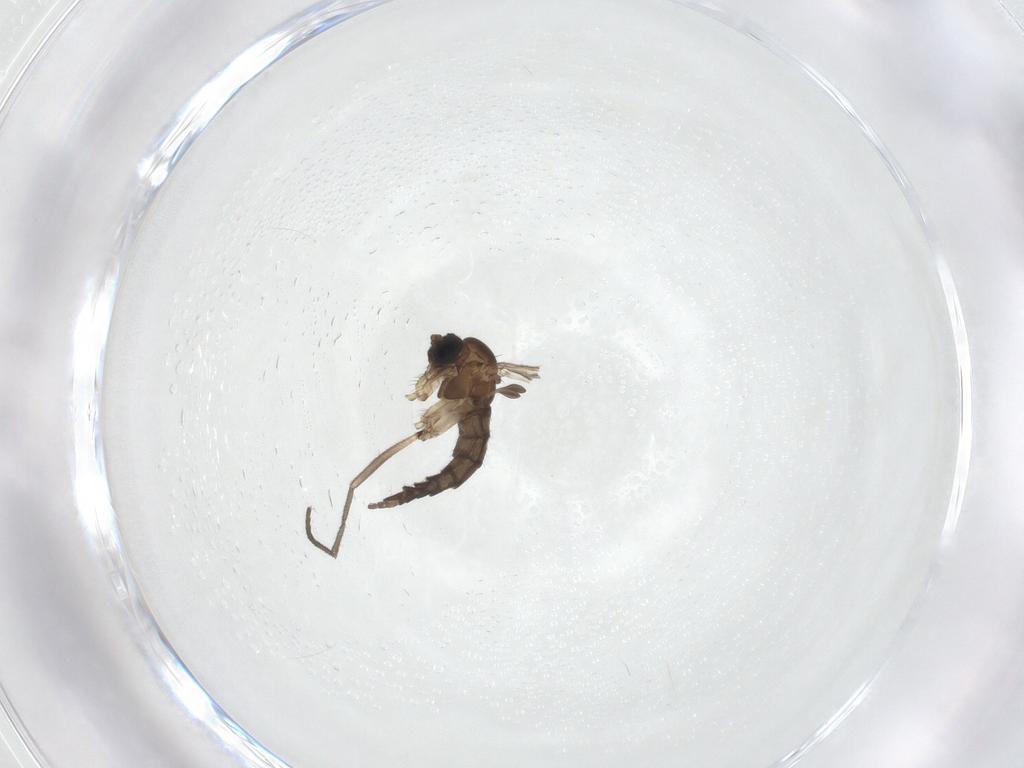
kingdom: Animalia
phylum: Arthropoda
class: Insecta
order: Diptera
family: Sciaridae
